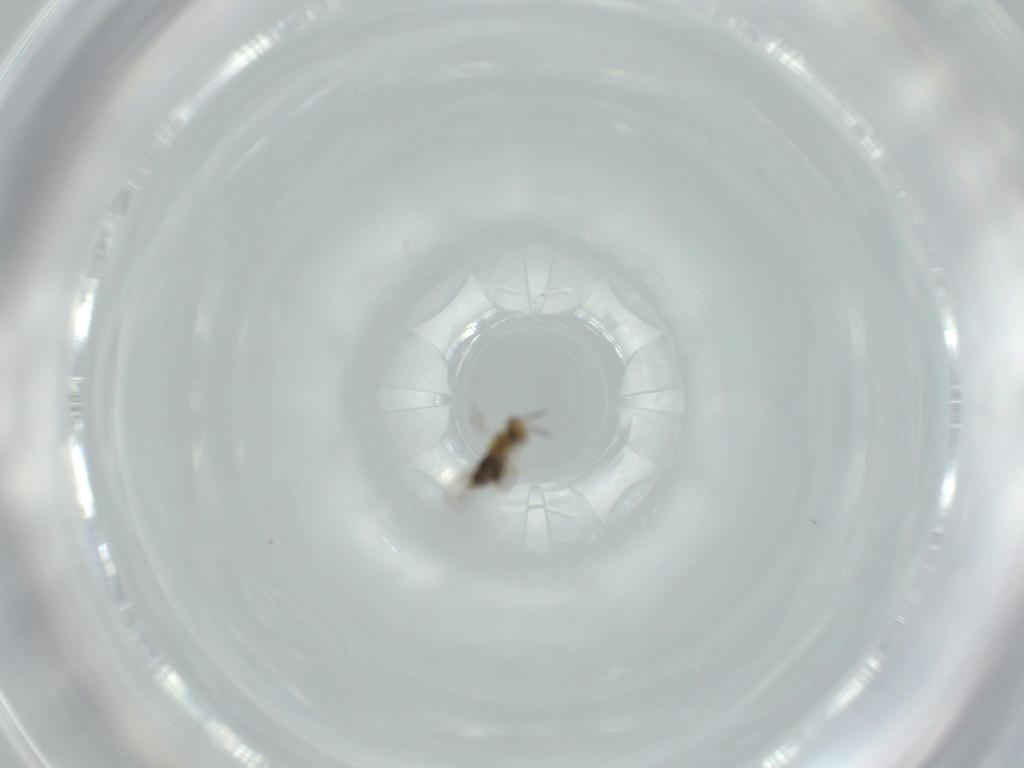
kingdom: Animalia
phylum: Arthropoda
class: Insecta
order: Hymenoptera
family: Aphelinidae
